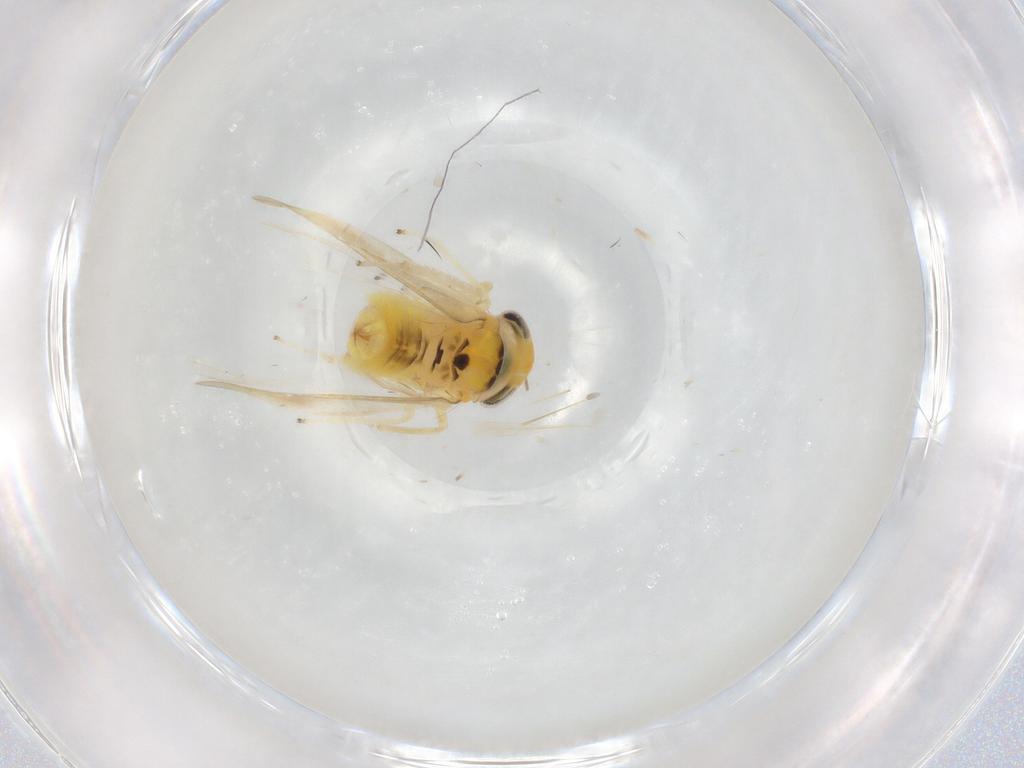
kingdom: Animalia
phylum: Arthropoda
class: Insecta
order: Hemiptera
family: Cicadellidae
